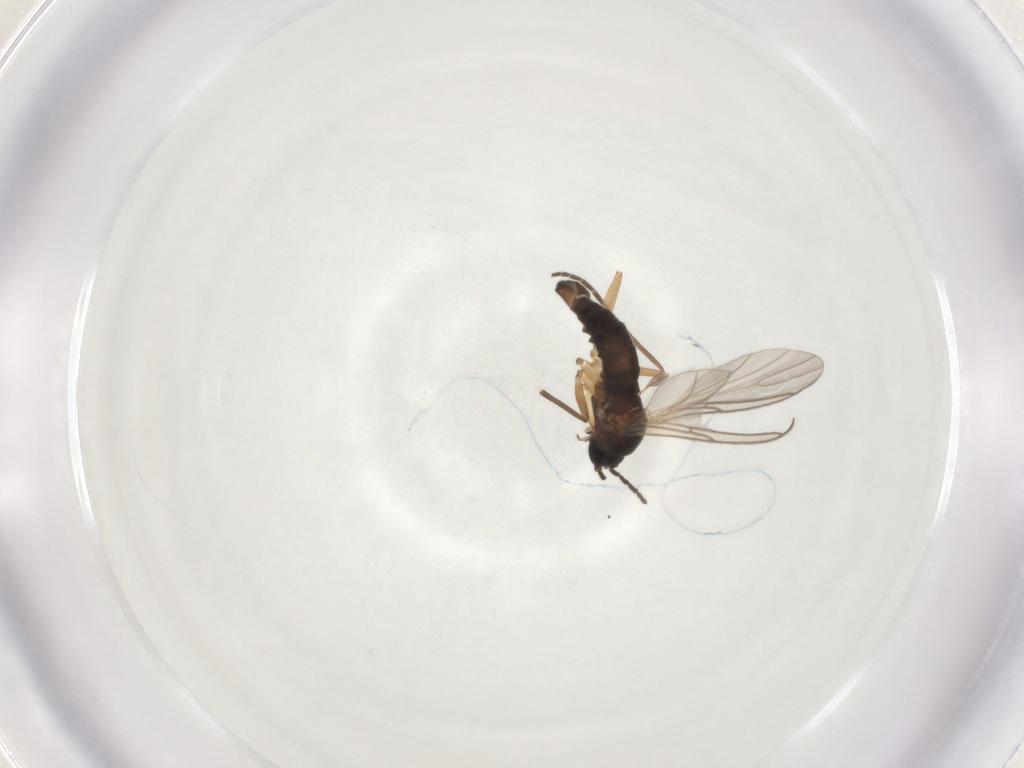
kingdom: Animalia
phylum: Arthropoda
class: Insecta
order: Diptera
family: Sciaridae
